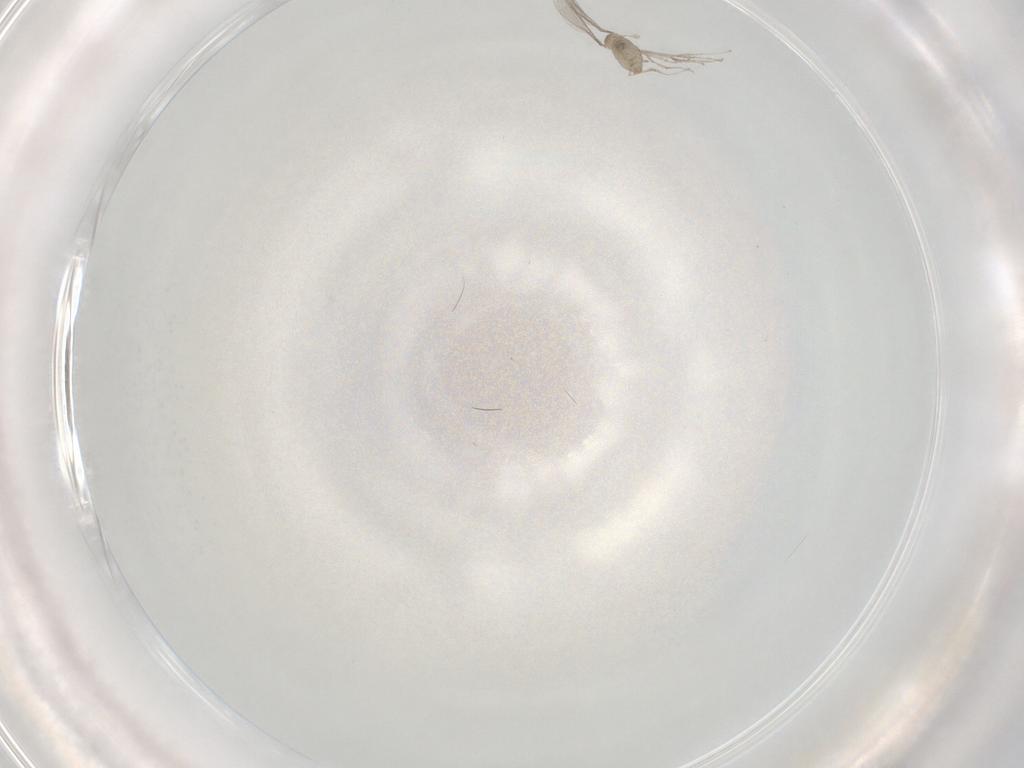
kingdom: Animalia
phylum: Arthropoda
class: Insecta
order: Diptera
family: Cecidomyiidae
